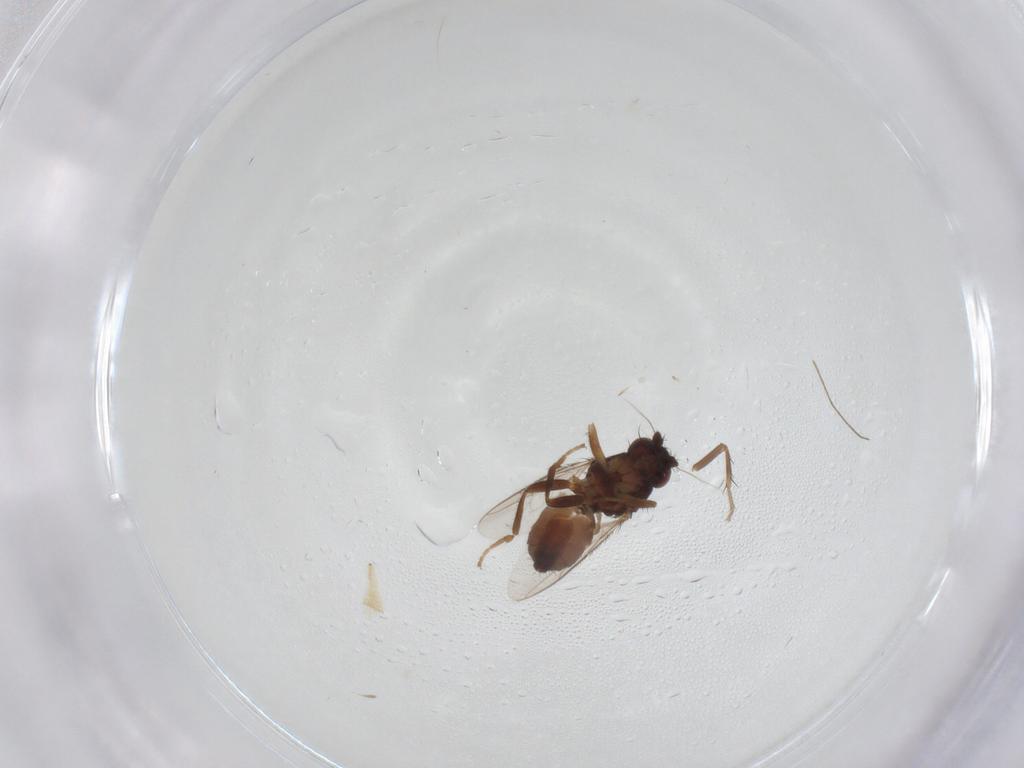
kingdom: Animalia
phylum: Arthropoda
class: Insecta
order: Diptera
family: Sphaeroceridae
